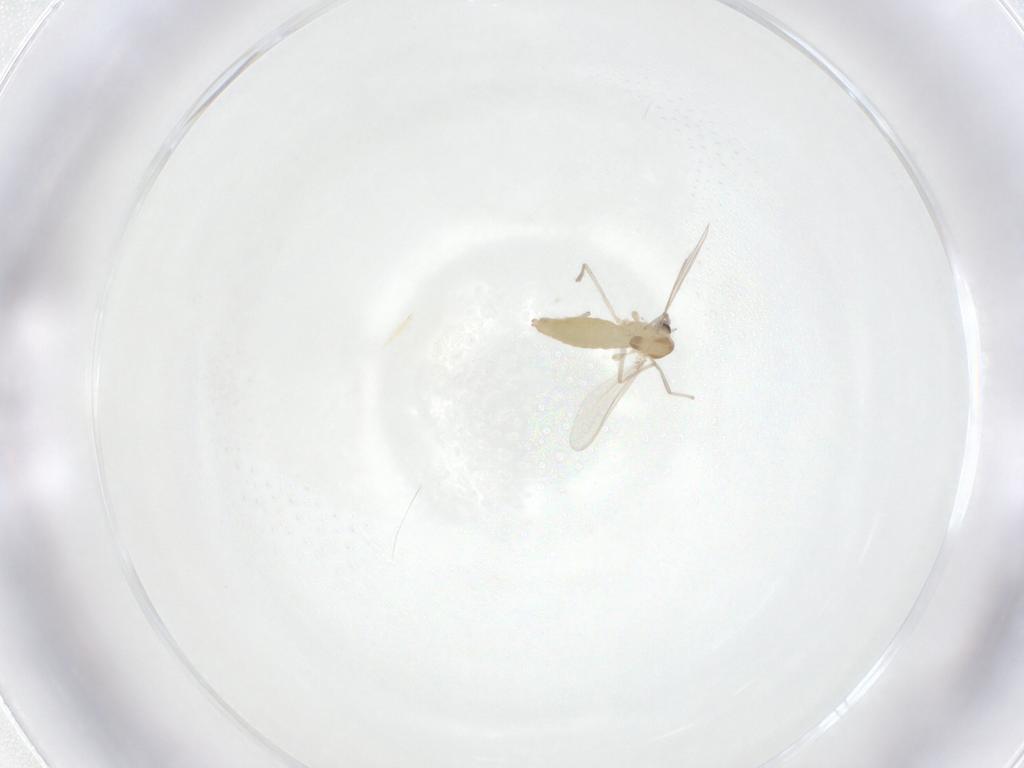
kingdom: Animalia
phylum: Arthropoda
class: Insecta
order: Diptera
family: Chironomidae
